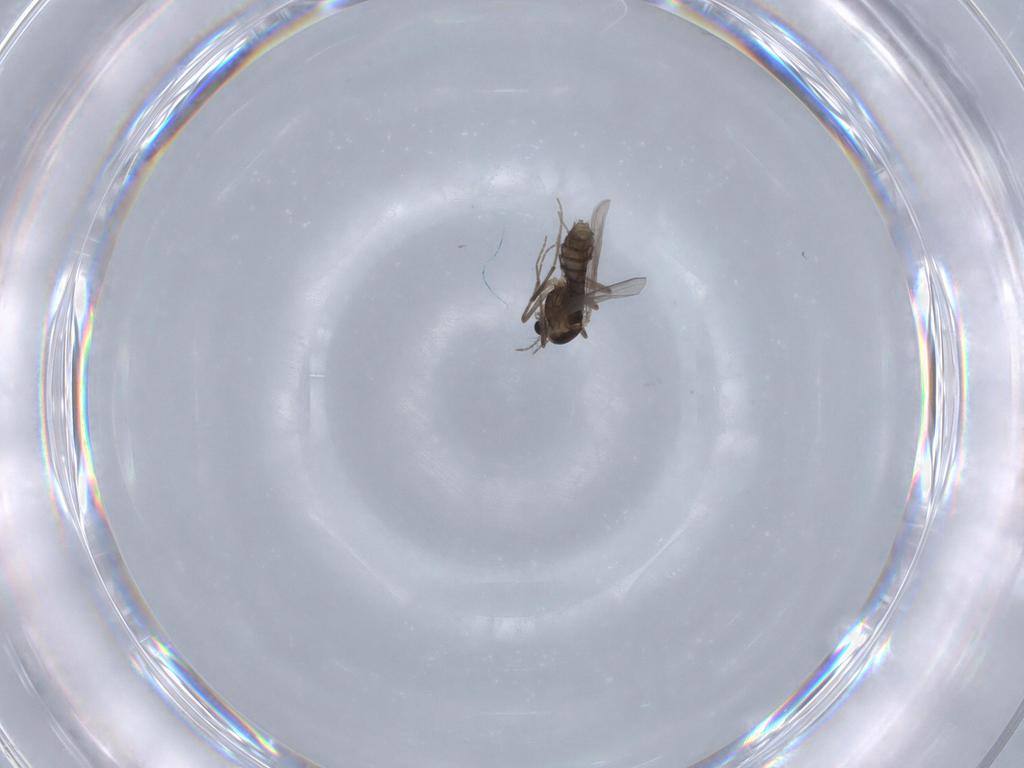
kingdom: Animalia
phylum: Arthropoda
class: Insecta
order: Diptera
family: Chironomidae
